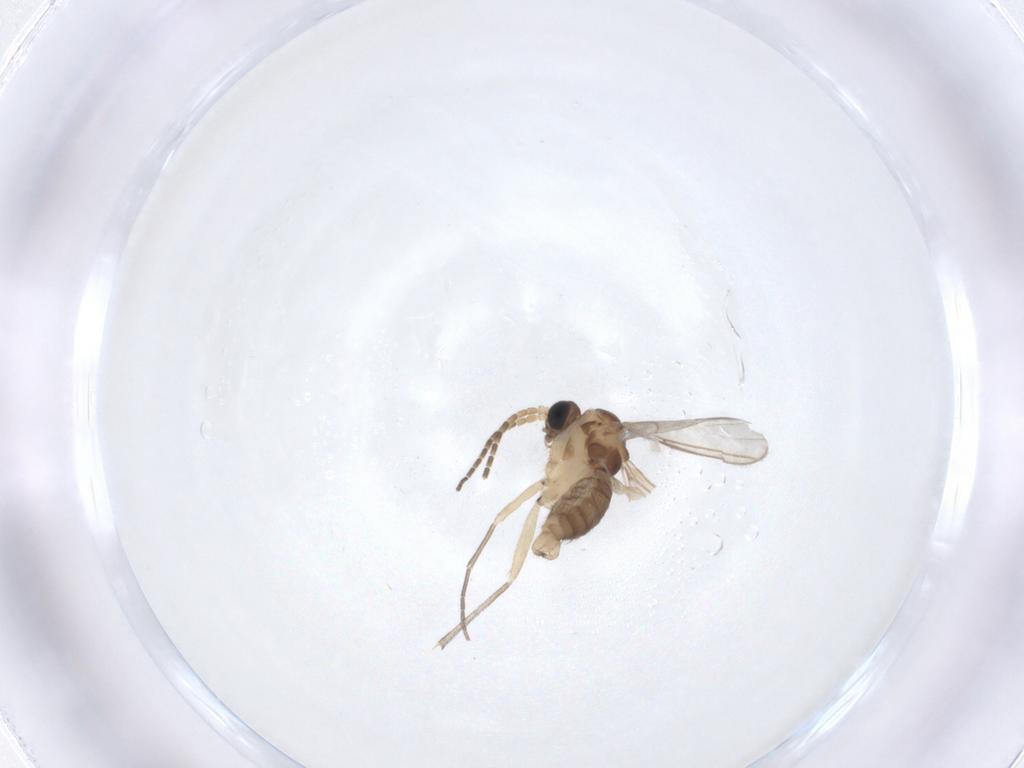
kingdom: Animalia
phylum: Arthropoda
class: Insecta
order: Diptera
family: Sciaridae
